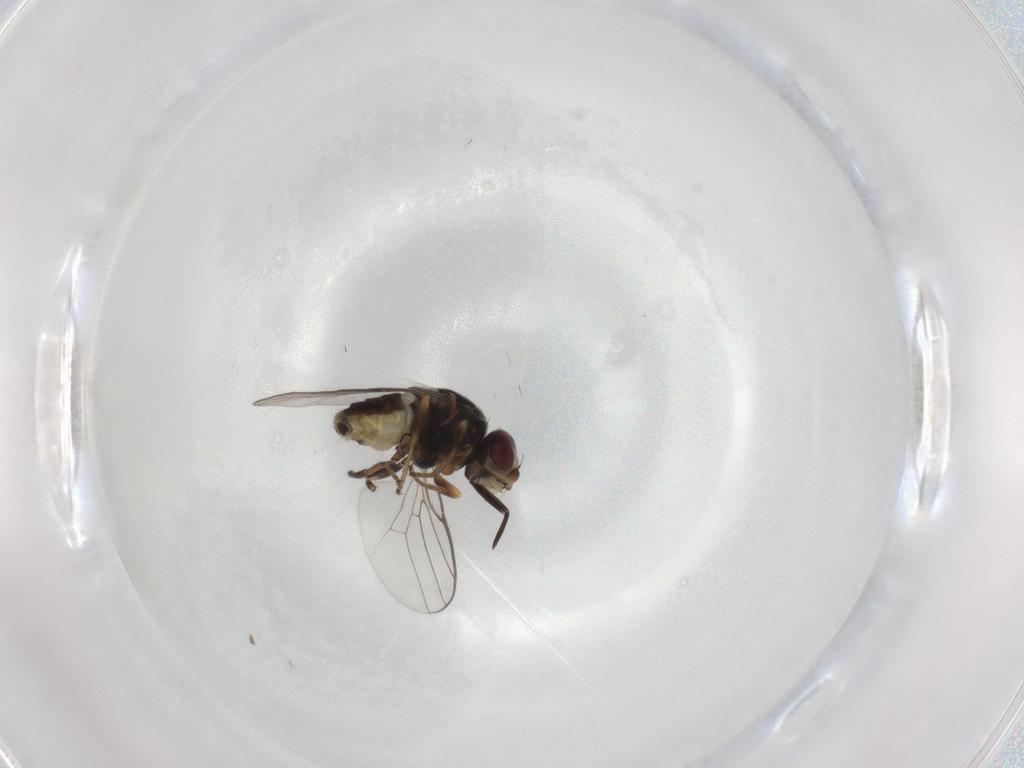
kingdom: Animalia
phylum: Arthropoda
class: Insecta
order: Diptera
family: Chloropidae
